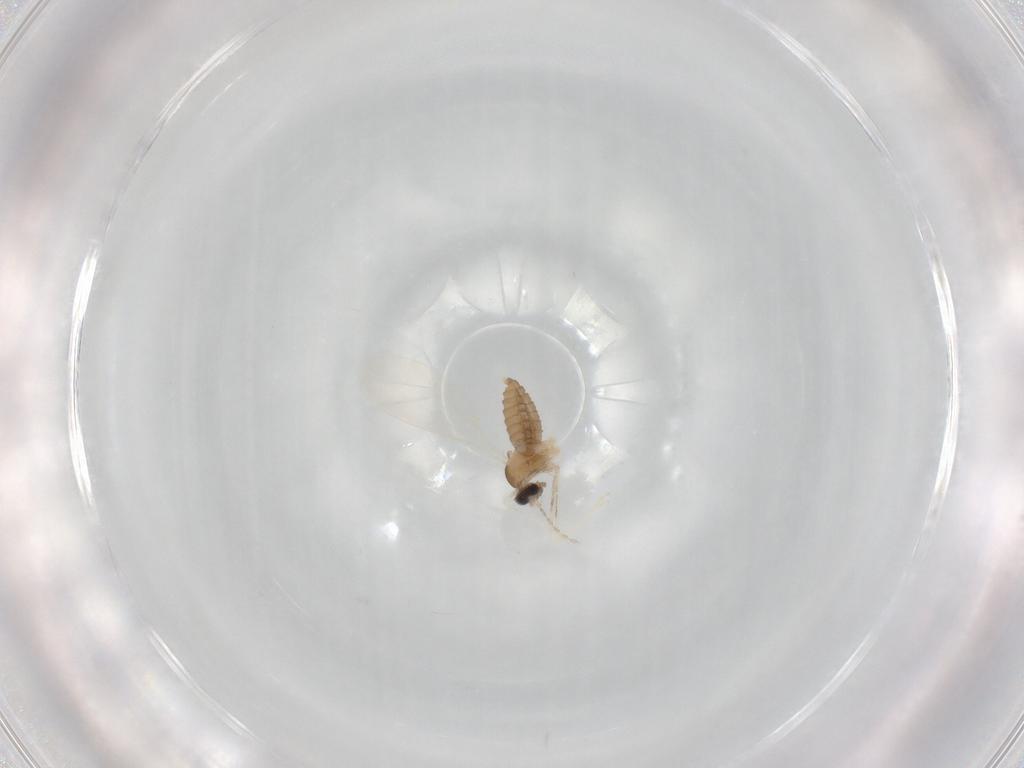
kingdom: Animalia
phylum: Arthropoda
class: Insecta
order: Diptera
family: Cecidomyiidae
